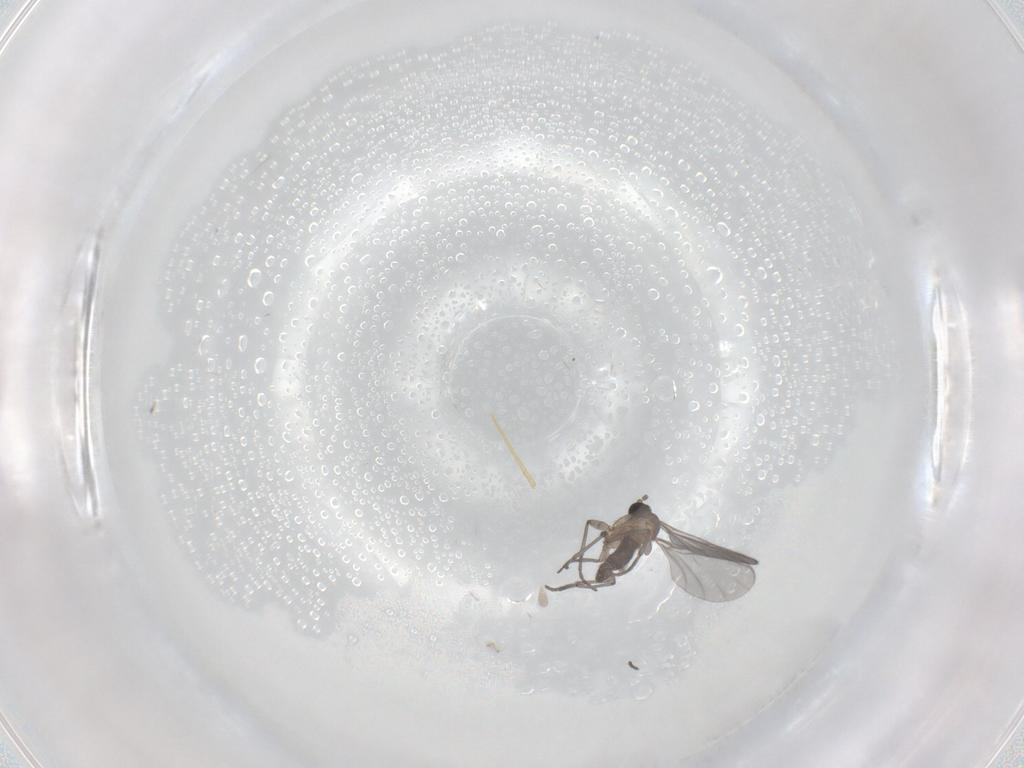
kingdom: Animalia
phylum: Arthropoda
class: Insecta
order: Diptera
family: Sciaridae
